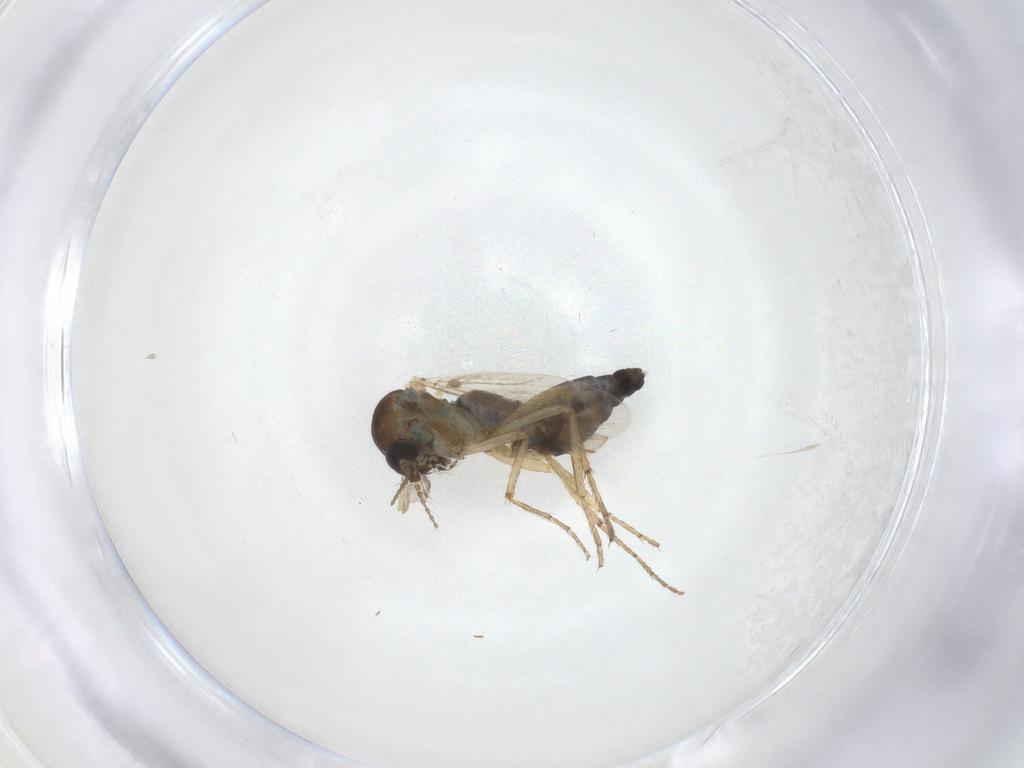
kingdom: Animalia
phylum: Arthropoda
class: Insecta
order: Diptera
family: Ceratopogonidae
